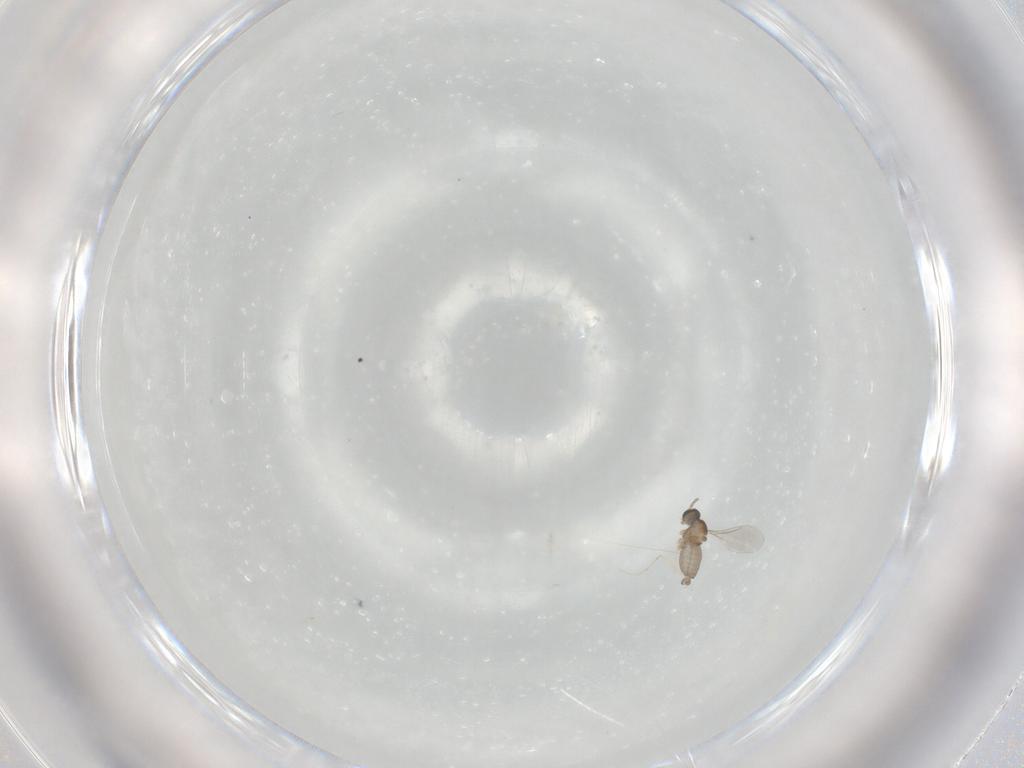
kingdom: Animalia
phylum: Arthropoda
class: Insecta
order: Diptera
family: Cecidomyiidae
